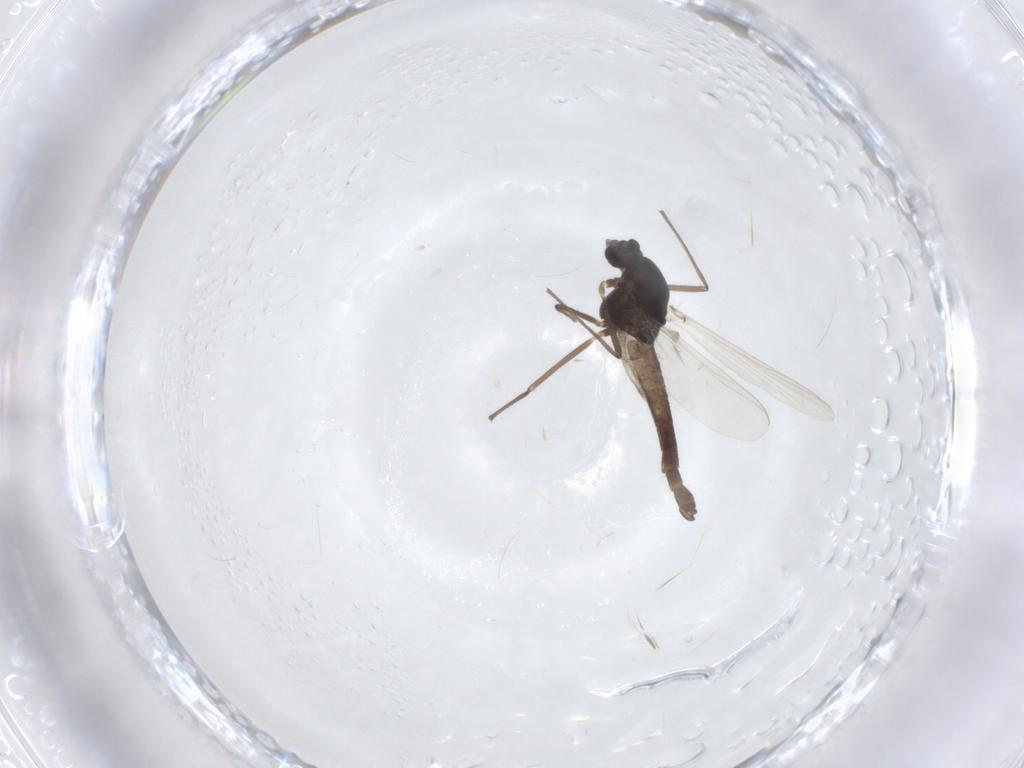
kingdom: Animalia
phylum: Arthropoda
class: Insecta
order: Diptera
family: Chironomidae
